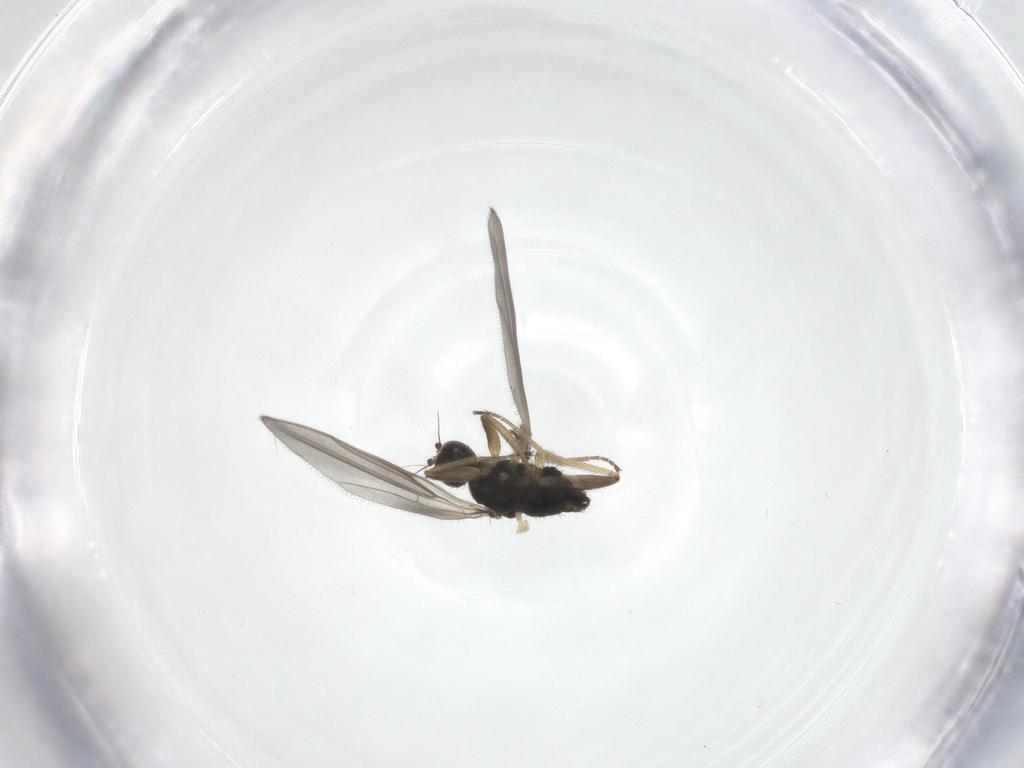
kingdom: Animalia
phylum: Arthropoda
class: Insecta
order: Diptera
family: Hybotidae
